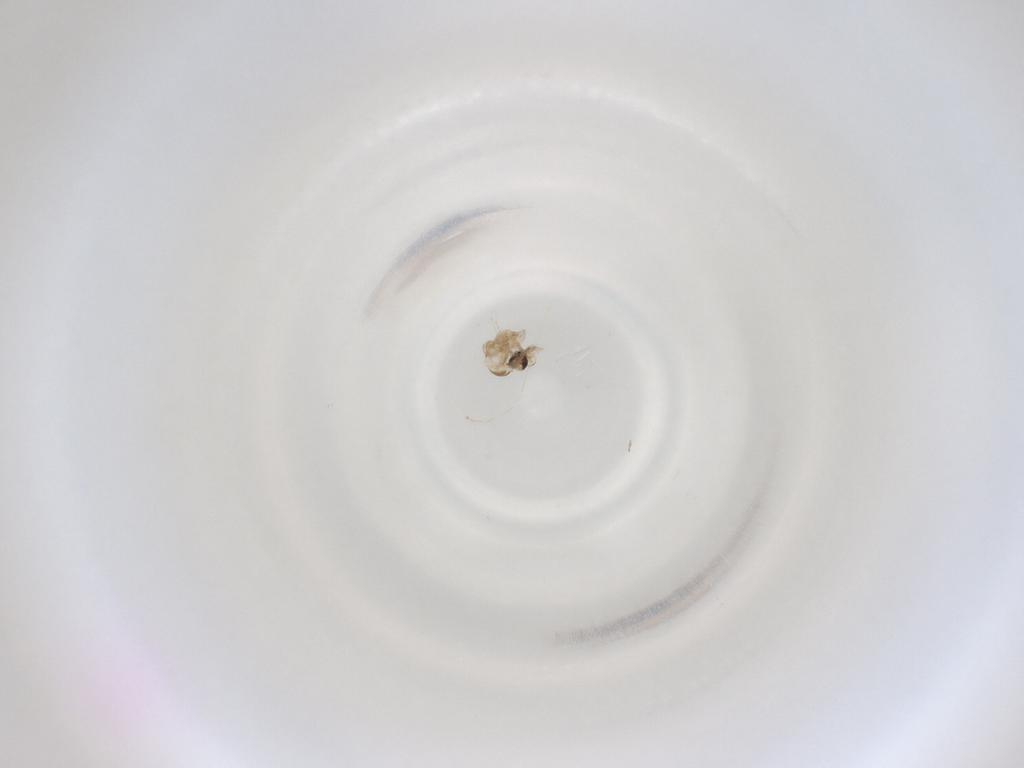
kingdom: Animalia
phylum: Arthropoda
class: Insecta
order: Diptera
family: Cecidomyiidae
